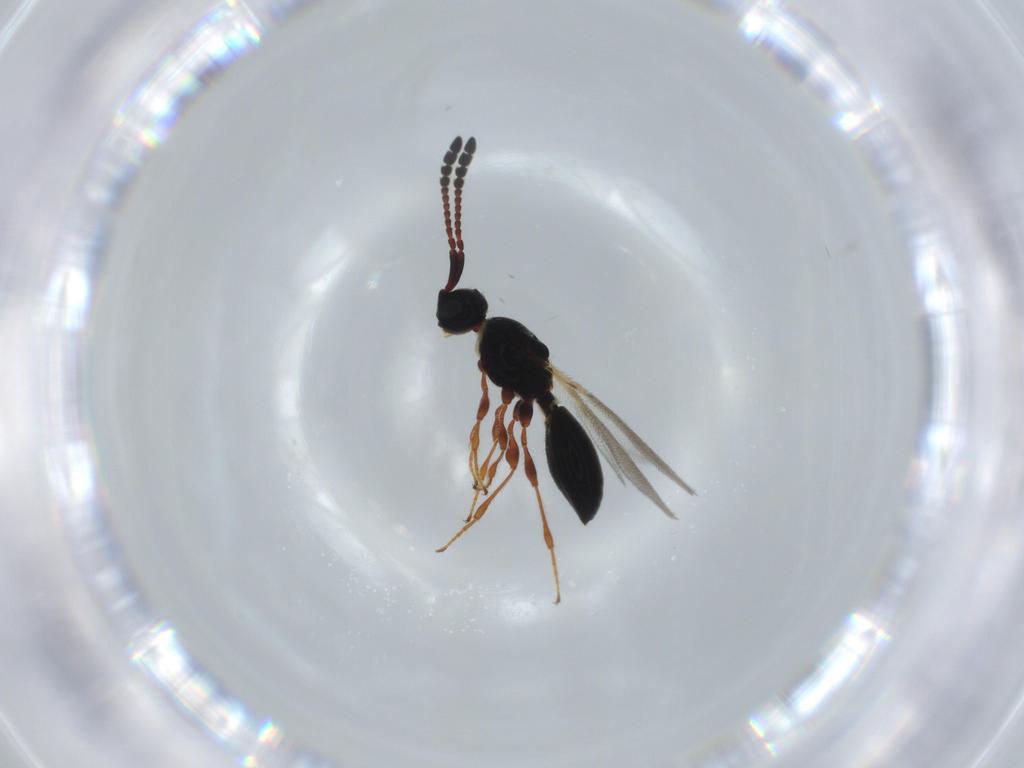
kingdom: Animalia
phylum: Arthropoda
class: Insecta
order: Hymenoptera
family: Diapriidae
